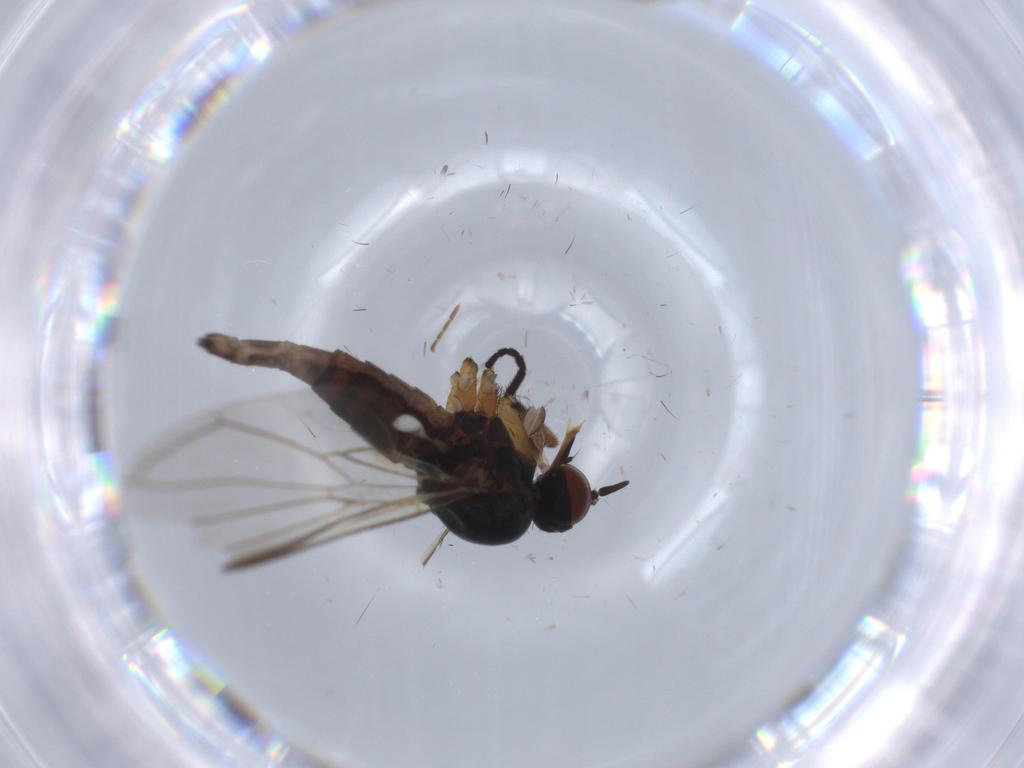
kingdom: Animalia
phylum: Arthropoda
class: Insecta
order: Diptera
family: Empididae
